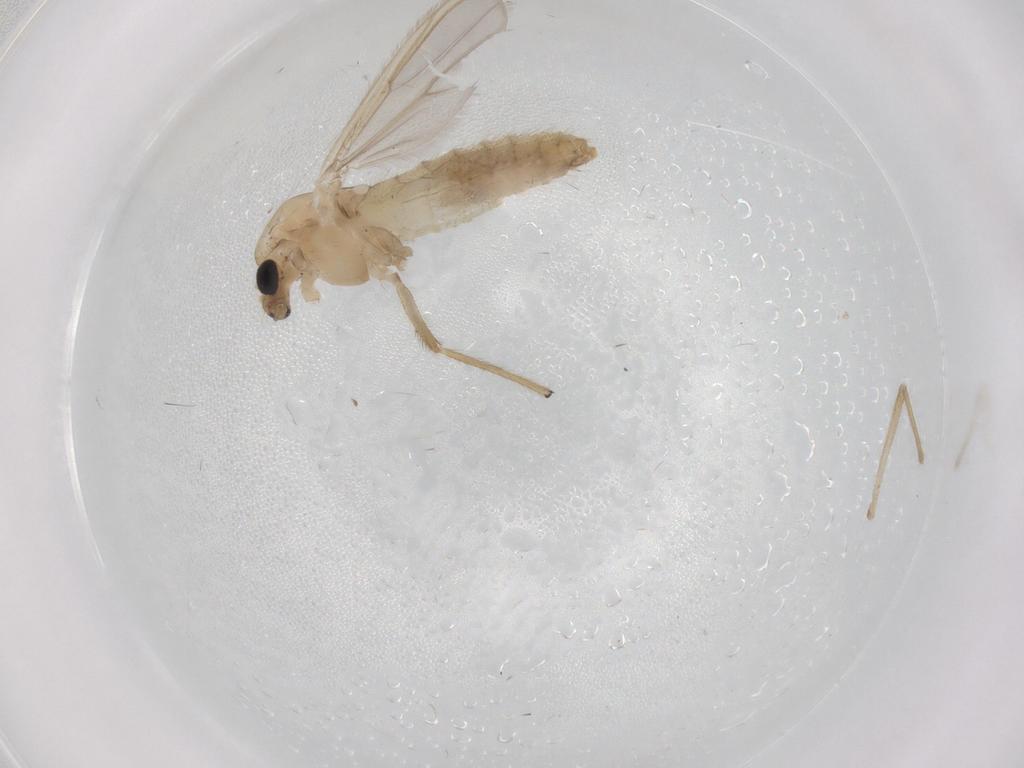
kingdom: Animalia
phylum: Arthropoda
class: Insecta
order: Diptera
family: Chironomidae
